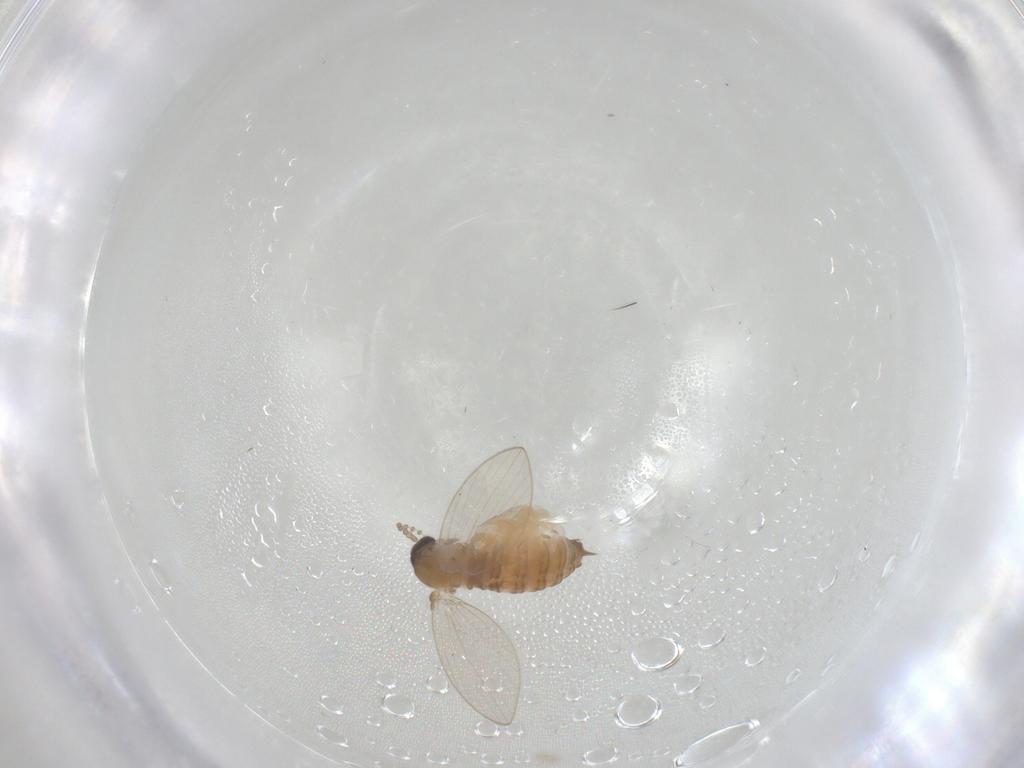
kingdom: Animalia
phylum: Arthropoda
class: Insecta
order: Diptera
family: Psychodidae
